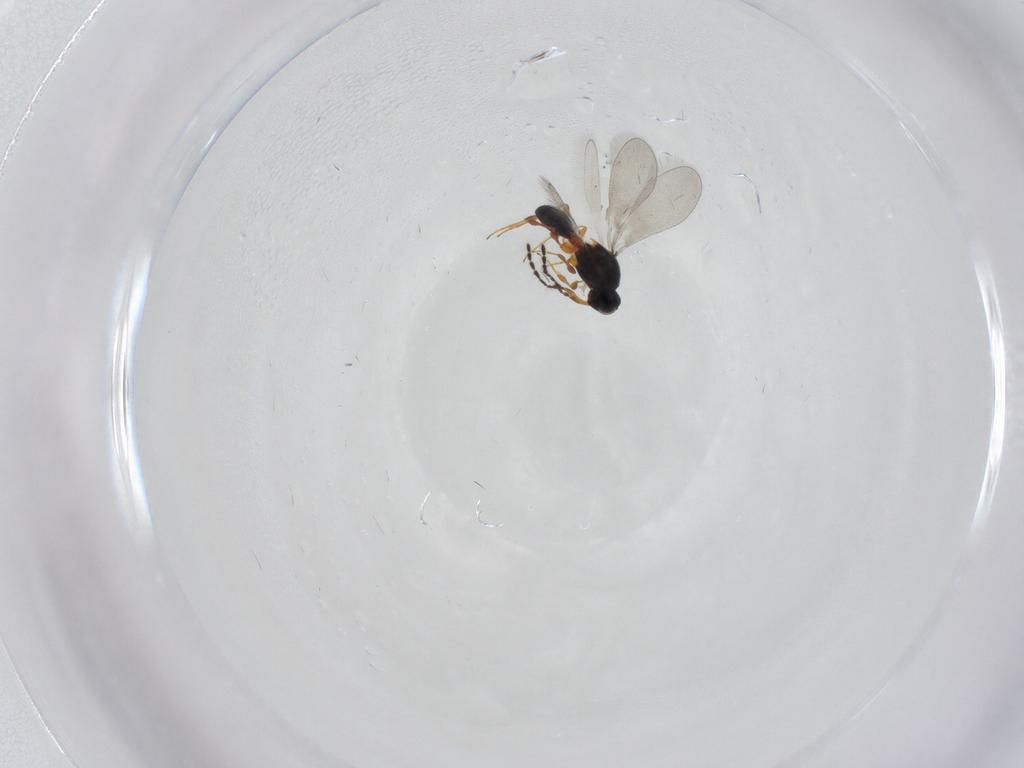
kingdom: Animalia
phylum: Arthropoda
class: Insecta
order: Hymenoptera
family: Platygastridae
